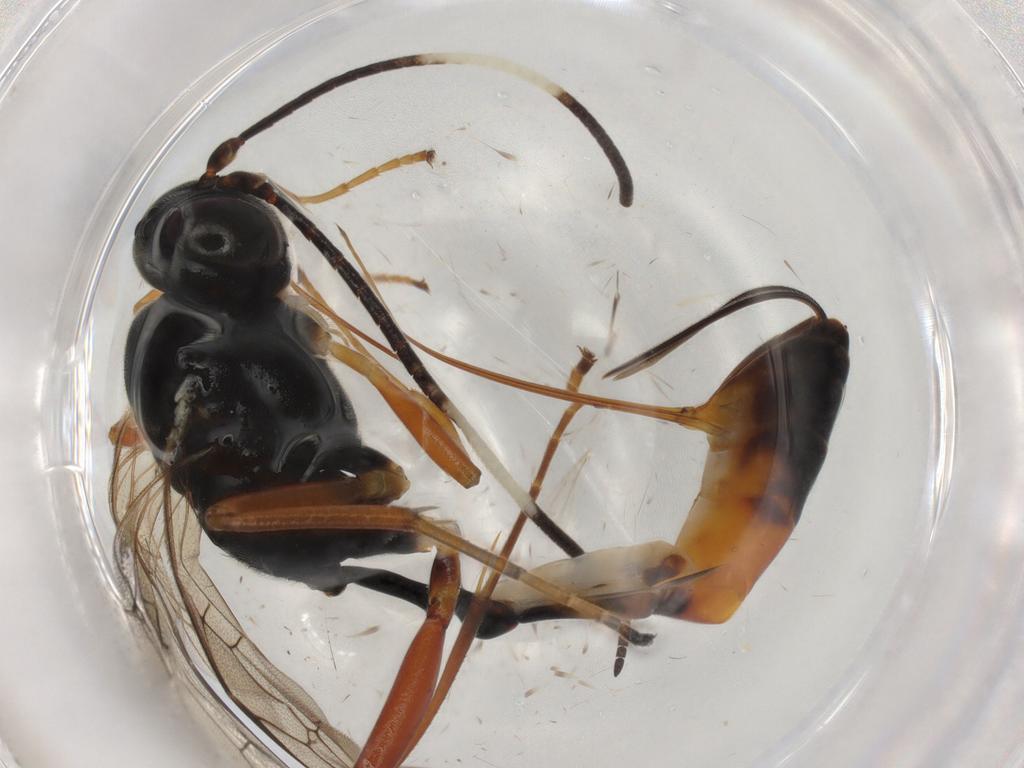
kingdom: Animalia
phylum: Arthropoda
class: Insecta
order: Hymenoptera
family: Ichneumonidae
